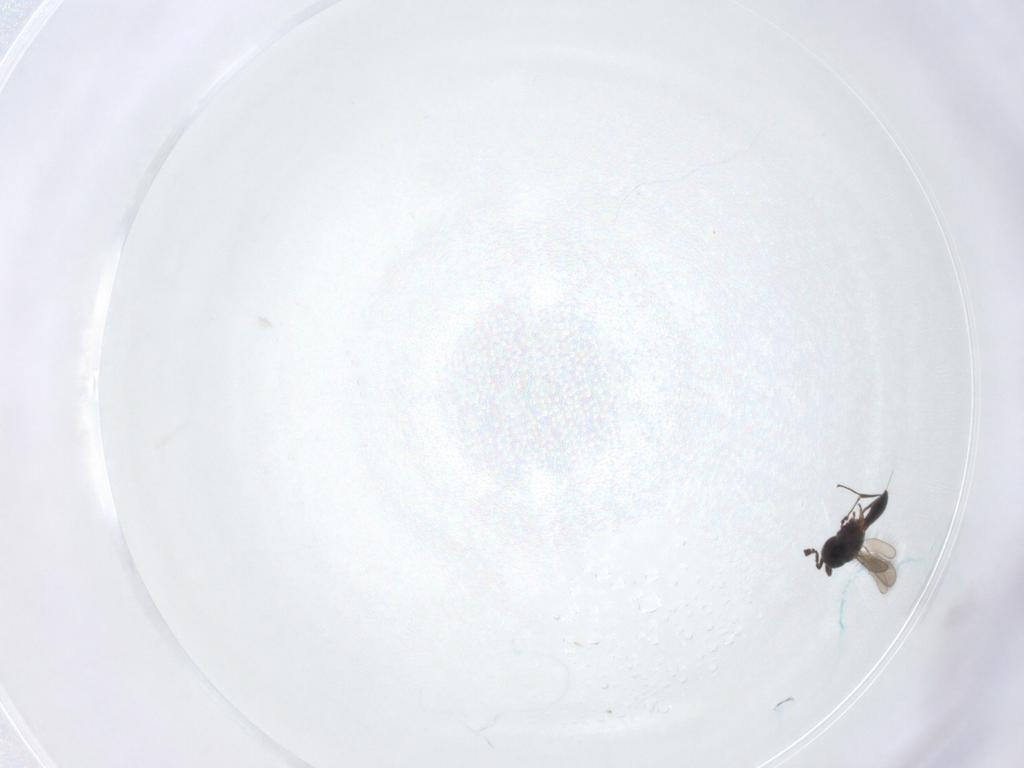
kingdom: Animalia
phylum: Arthropoda
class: Insecta
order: Hymenoptera
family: Scelionidae
